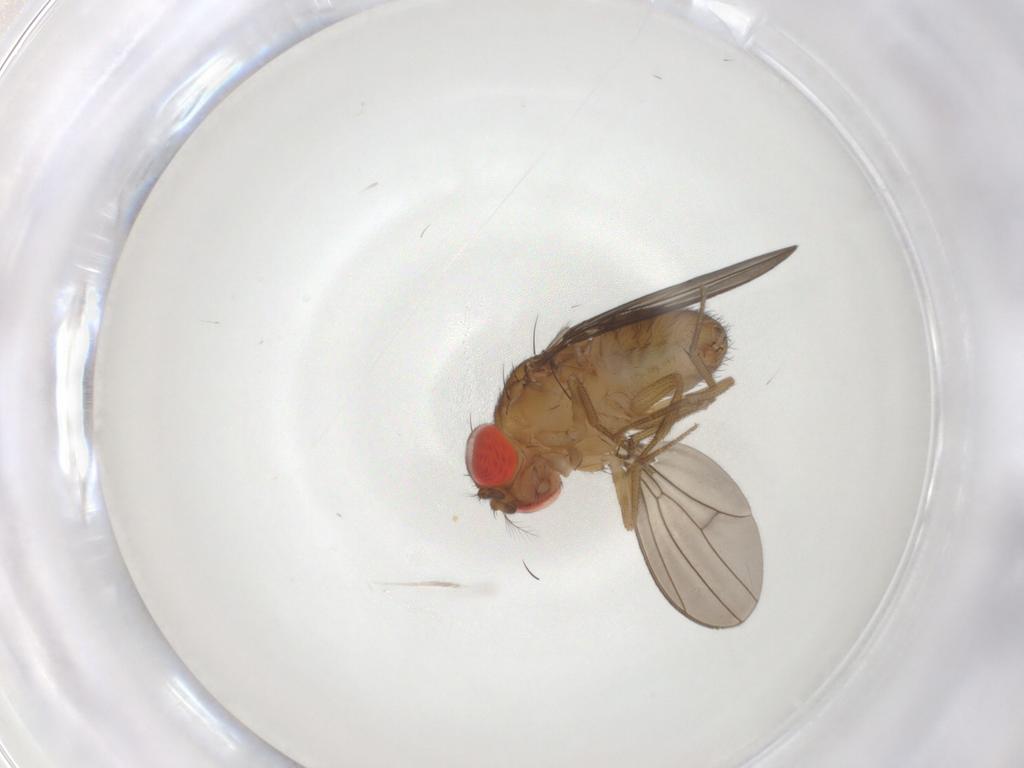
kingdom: Animalia
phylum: Arthropoda
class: Insecta
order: Diptera
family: Drosophilidae
